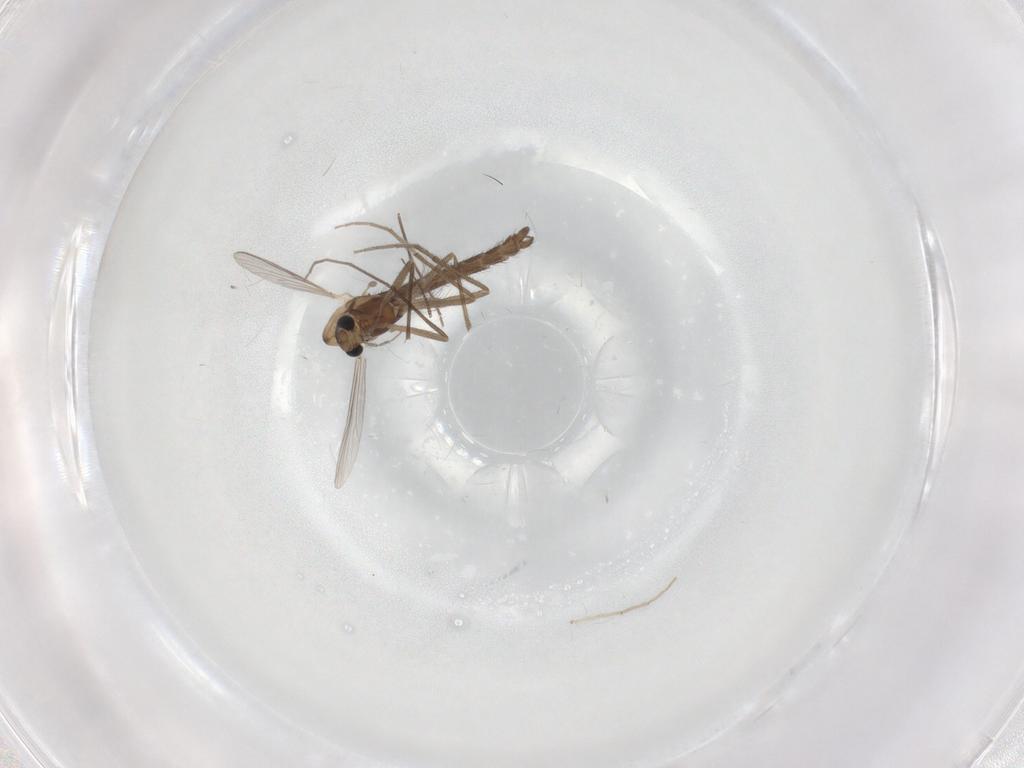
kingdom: Animalia
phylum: Arthropoda
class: Insecta
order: Diptera
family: Chironomidae
